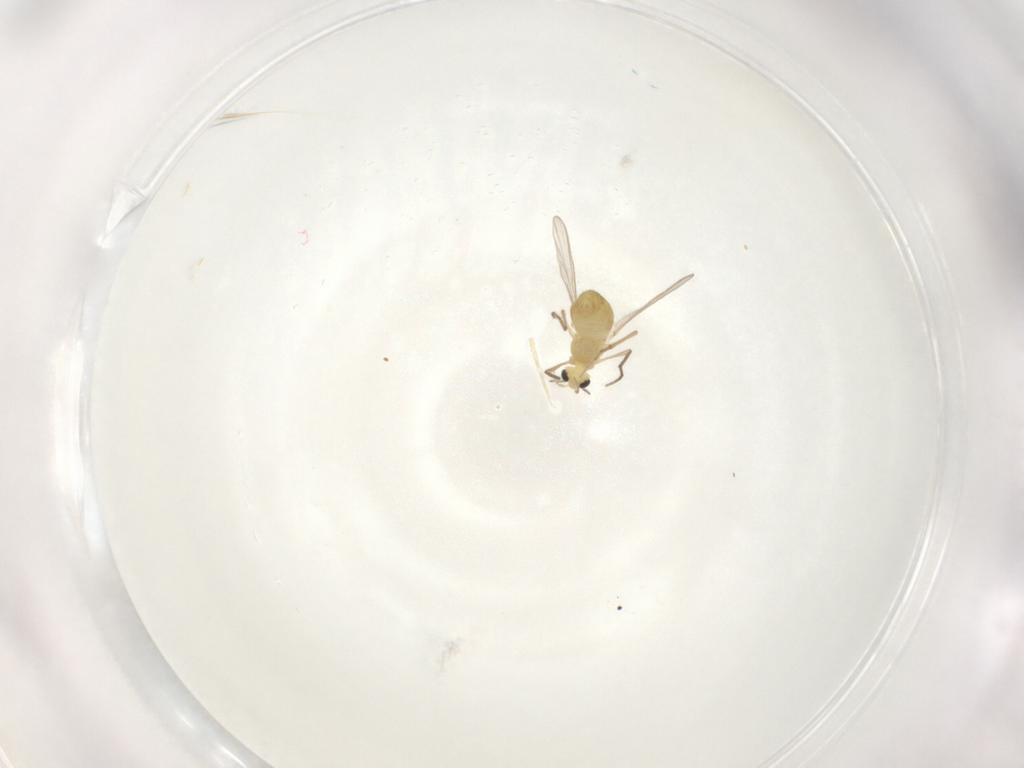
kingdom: Animalia
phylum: Arthropoda
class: Insecta
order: Diptera
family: Chironomidae
